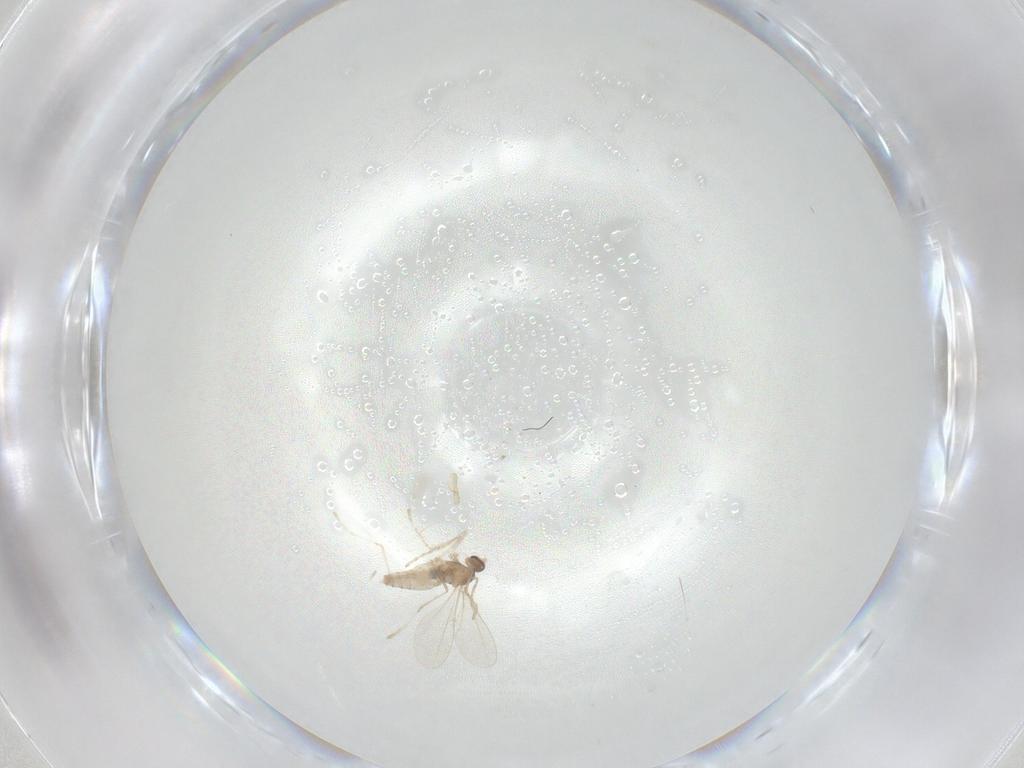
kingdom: Animalia
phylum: Arthropoda
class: Insecta
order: Diptera
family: Cecidomyiidae
